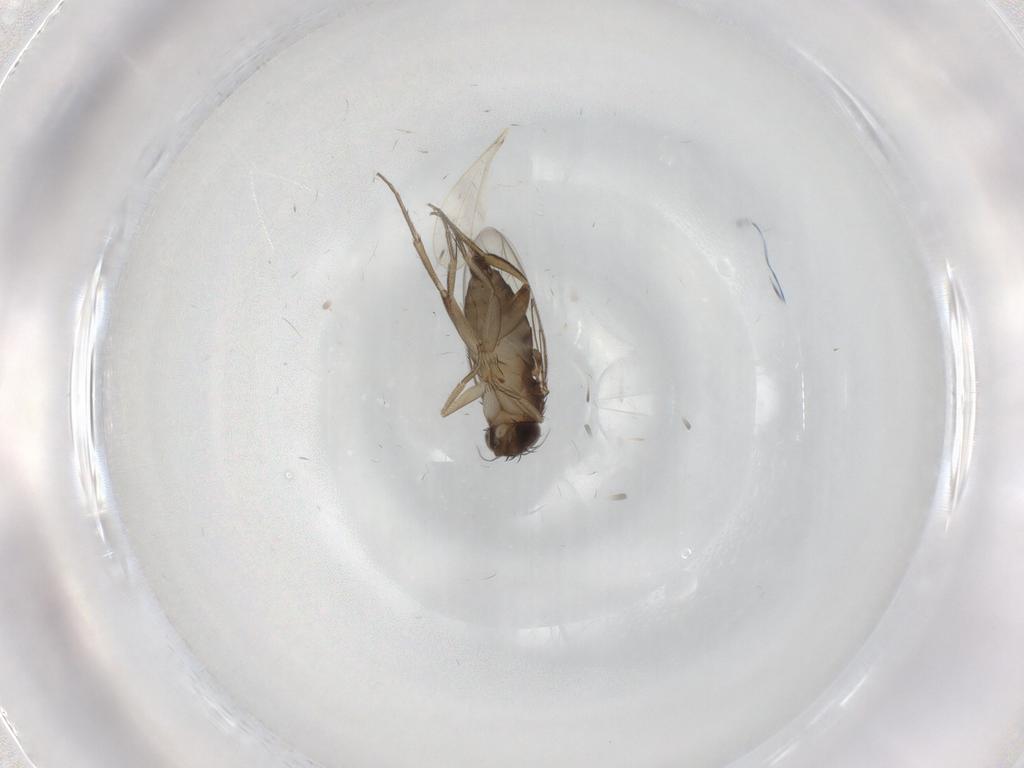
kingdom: Animalia
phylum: Arthropoda
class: Insecta
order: Diptera
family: Phoridae
